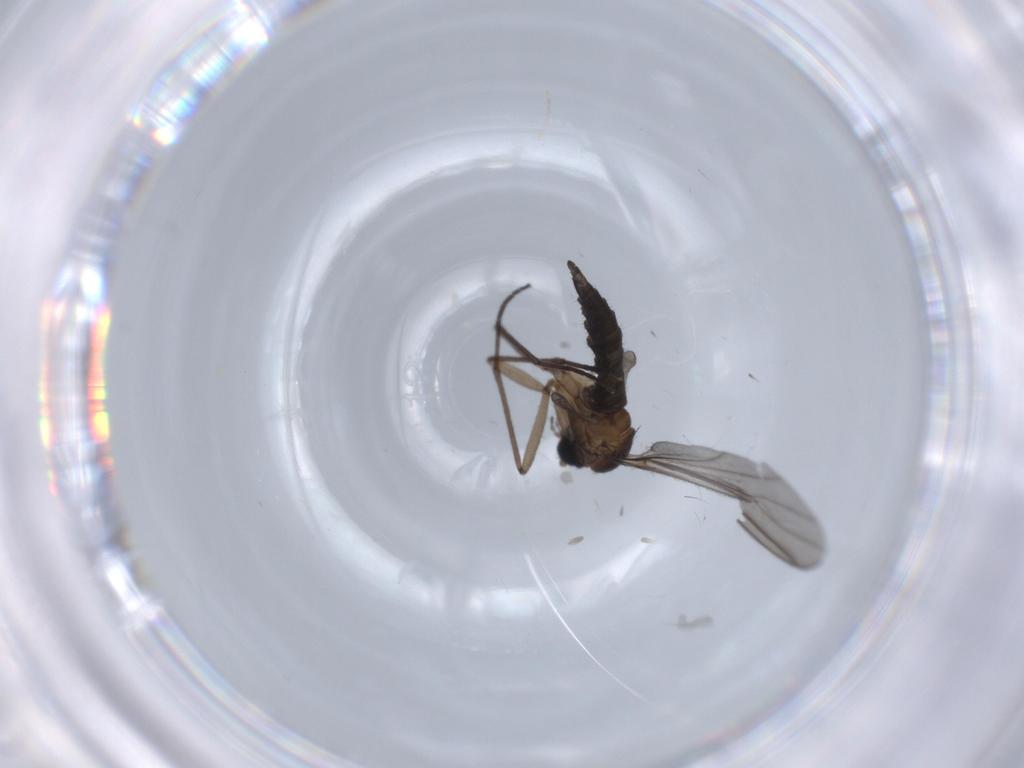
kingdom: Animalia
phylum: Arthropoda
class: Insecta
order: Diptera
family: Sciaridae
